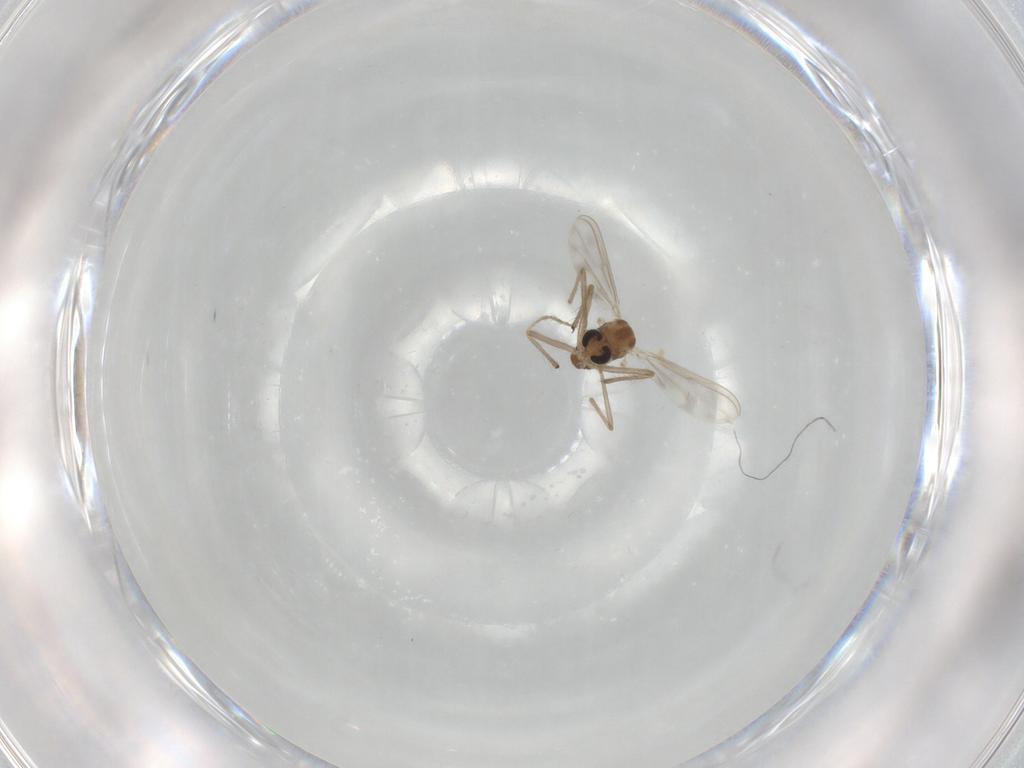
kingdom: Animalia
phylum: Arthropoda
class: Insecta
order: Diptera
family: Chironomidae
